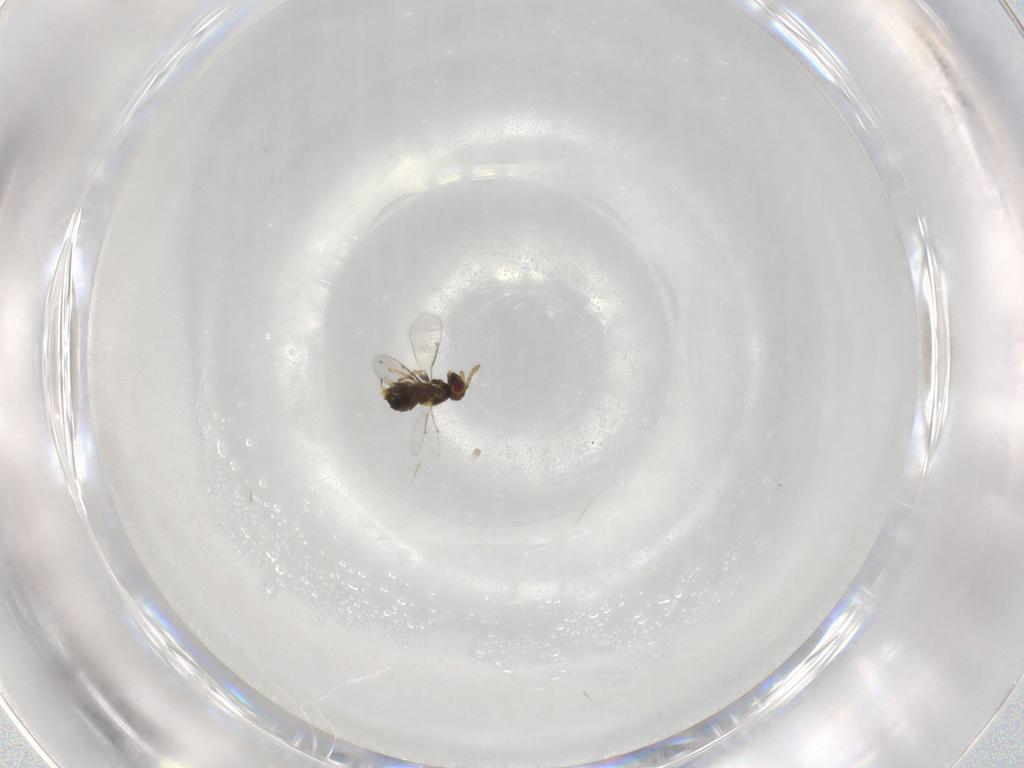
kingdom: Animalia
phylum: Arthropoda
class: Insecta
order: Hymenoptera
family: Aphelinidae
